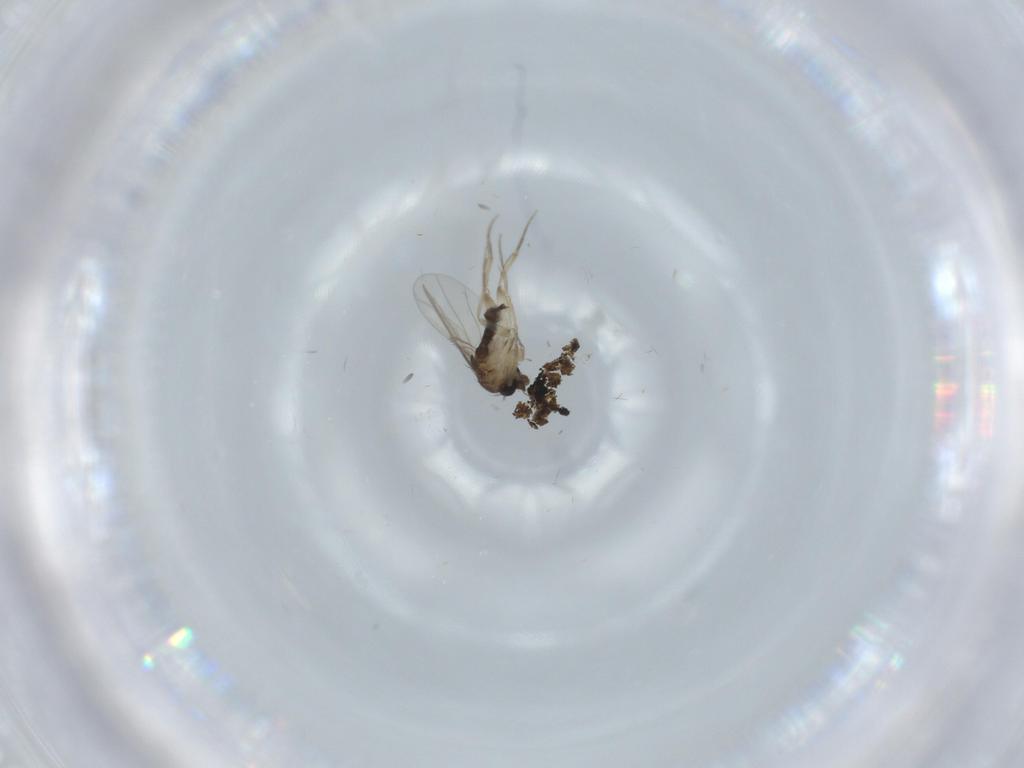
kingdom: Animalia
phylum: Arthropoda
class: Insecta
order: Diptera
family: Phoridae
